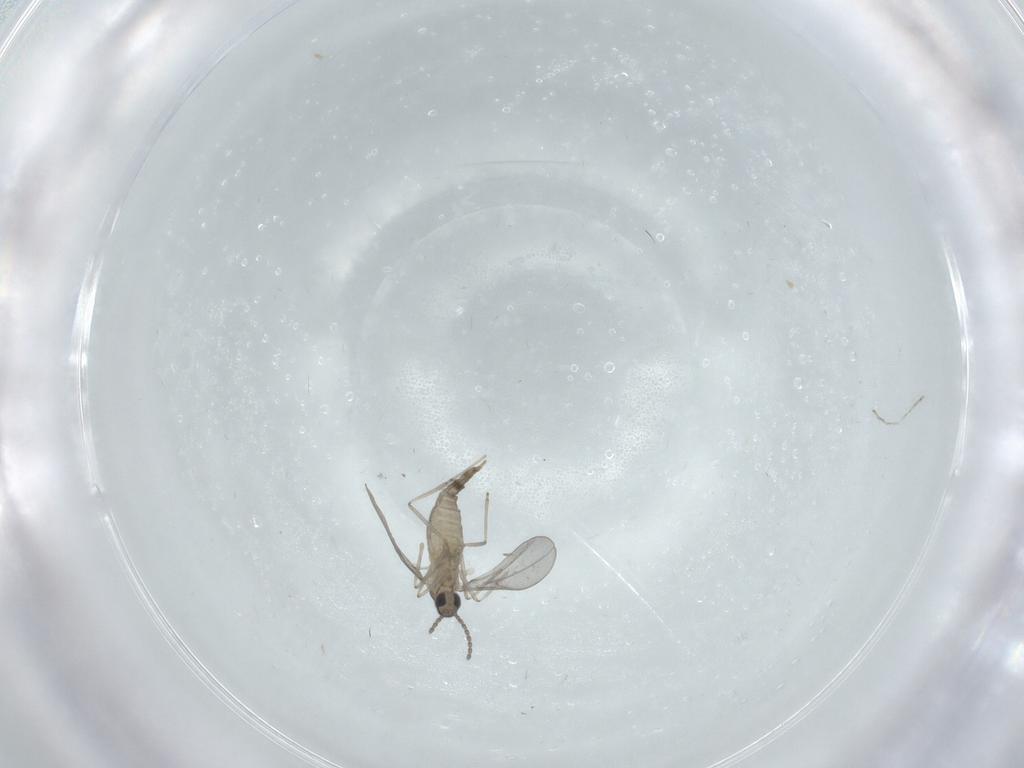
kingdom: Animalia
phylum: Arthropoda
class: Insecta
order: Diptera
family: Cecidomyiidae
